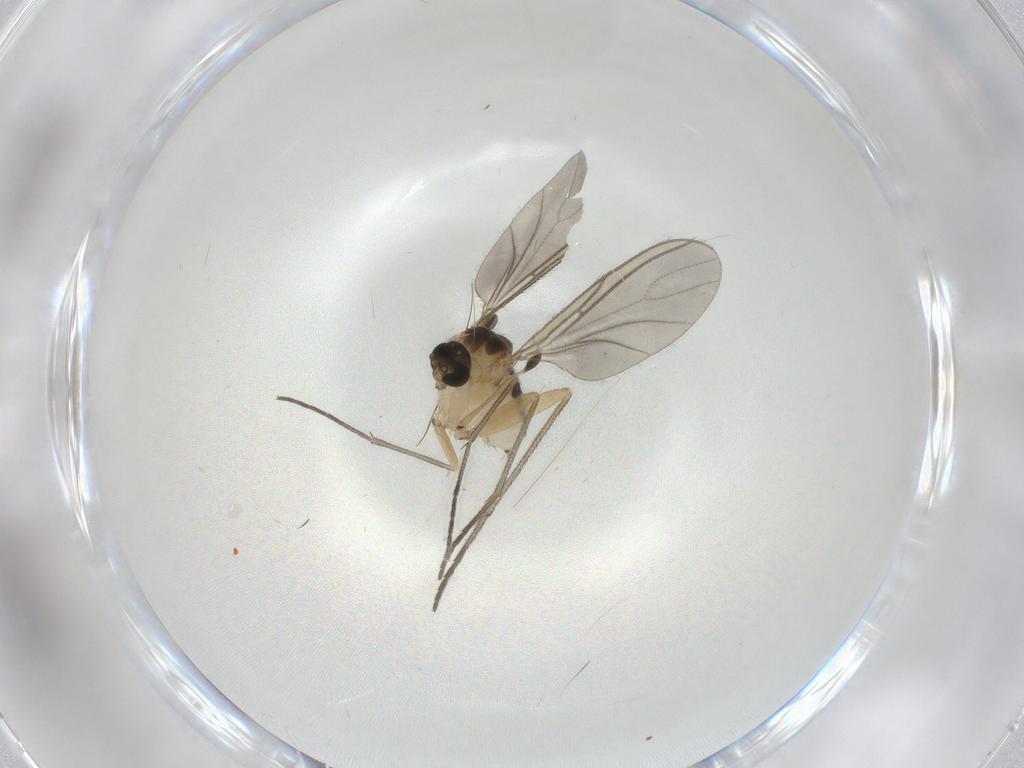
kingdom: Animalia
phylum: Arthropoda
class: Insecta
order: Diptera
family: Sciaridae
